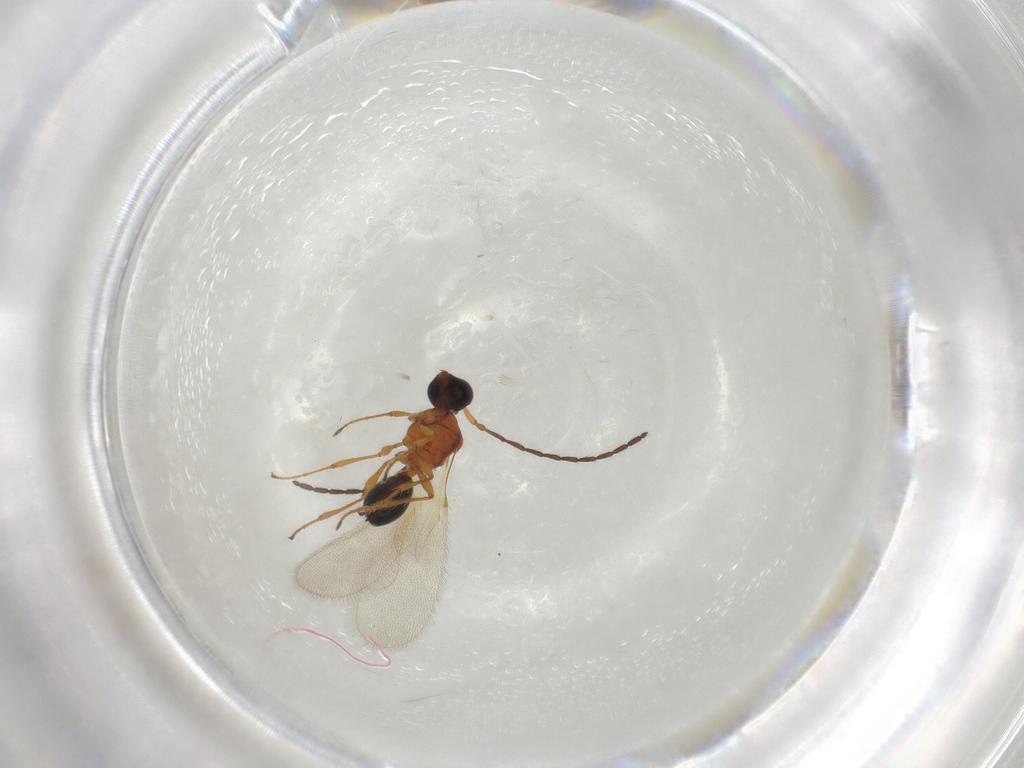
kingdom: Animalia
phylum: Arthropoda
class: Insecta
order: Hymenoptera
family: Diapriidae
